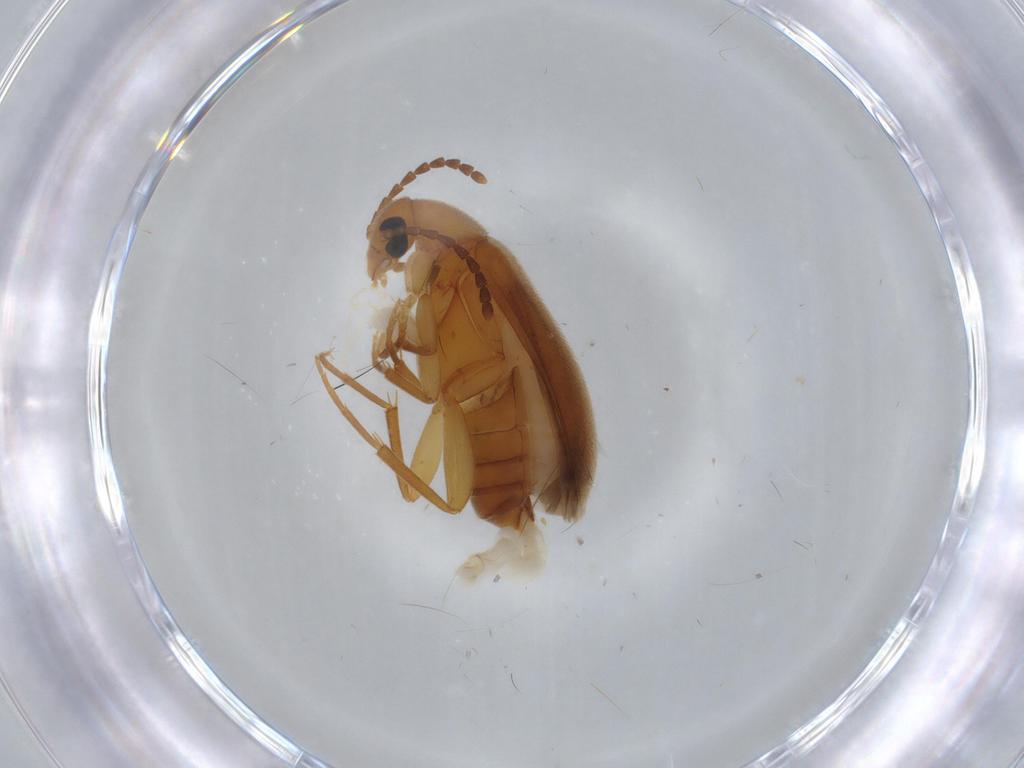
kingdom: Animalia
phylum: Arthropoda
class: Insecta
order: Coleoptera
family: Scraptiidae
